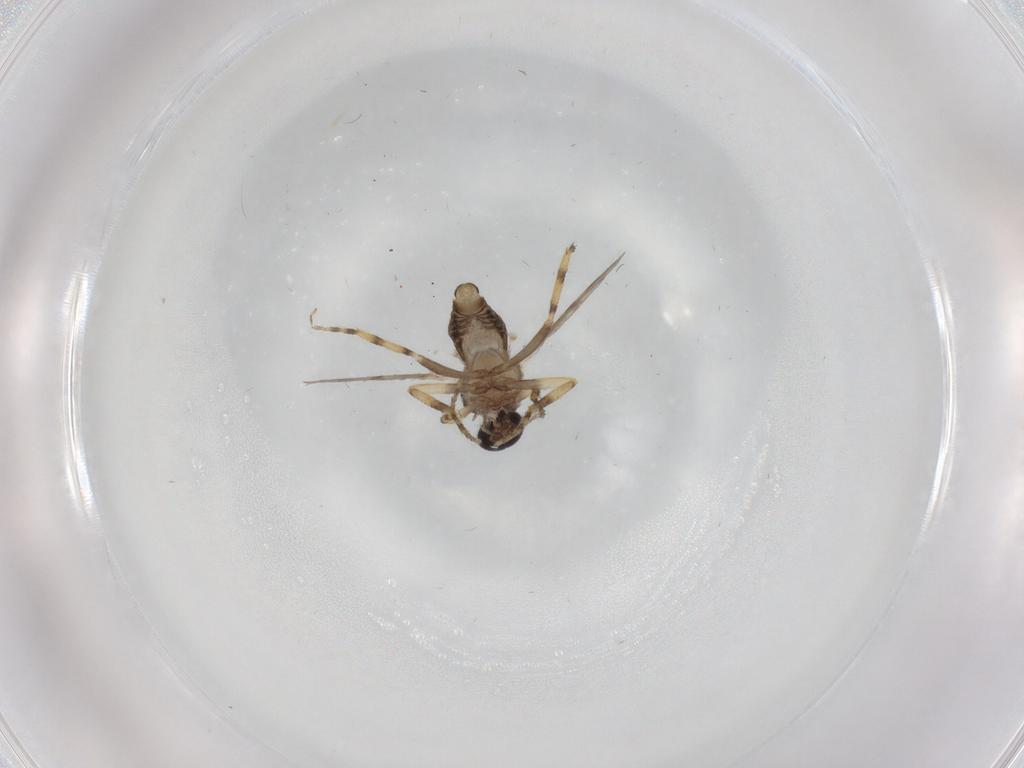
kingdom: Animalia
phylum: Arthropoda
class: Insecta
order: Diptera
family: Ceratopogonidae
